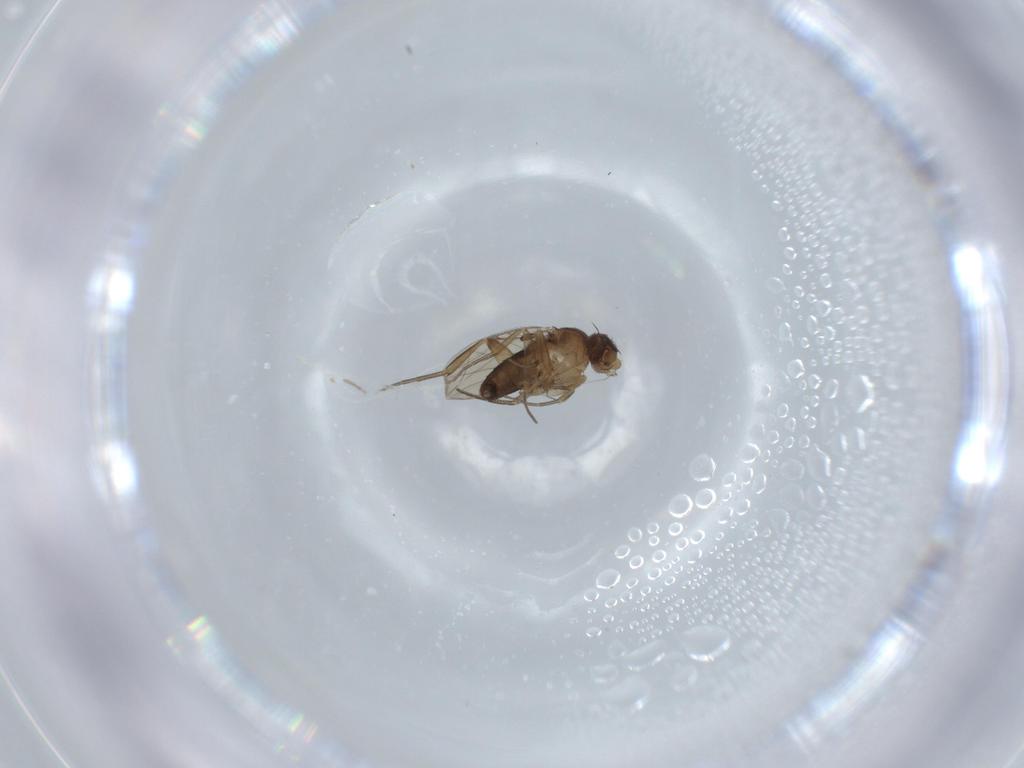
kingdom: Animalia
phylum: Arthropoda
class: Insecta
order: Diptera
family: Phoridae
